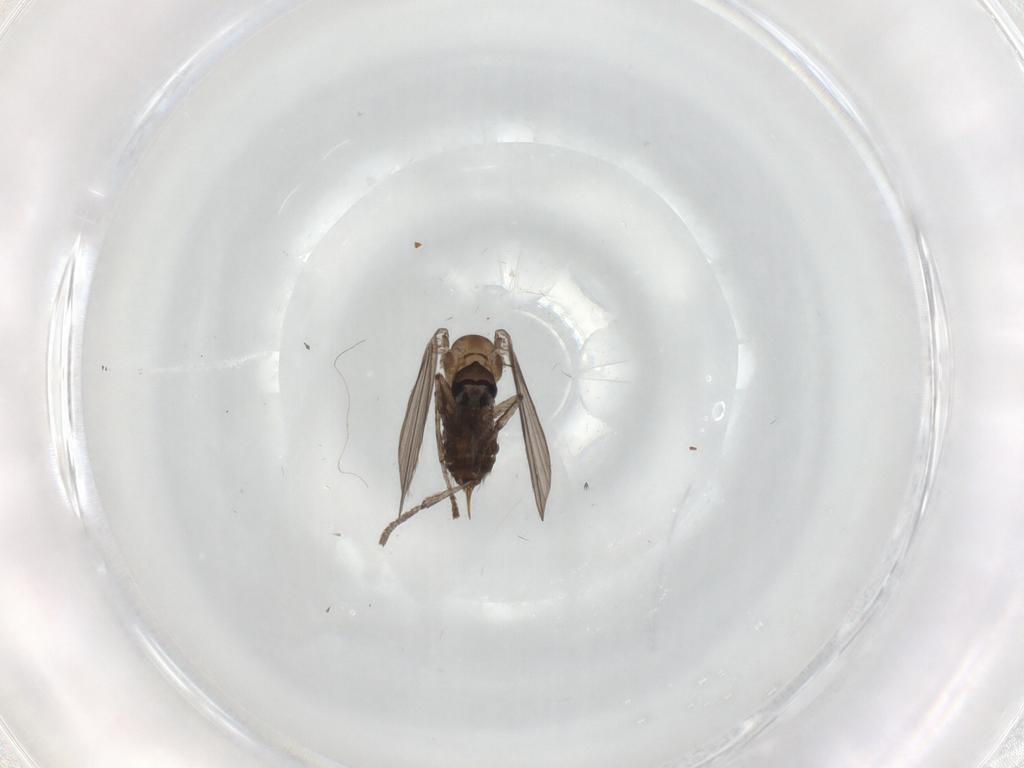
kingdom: Animalia
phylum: Arthropoda
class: Insecta
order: Diptera
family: Psychodidae
